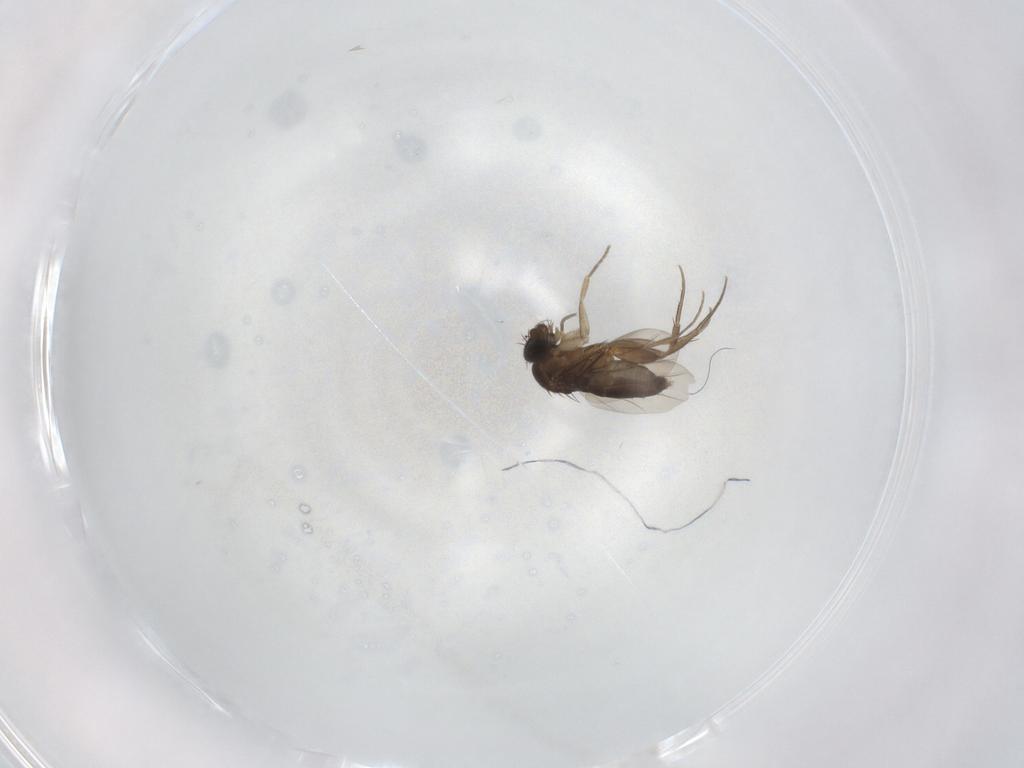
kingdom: Animalia
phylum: Arthropoda
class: Insecta
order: Diptera
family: Phoridae
